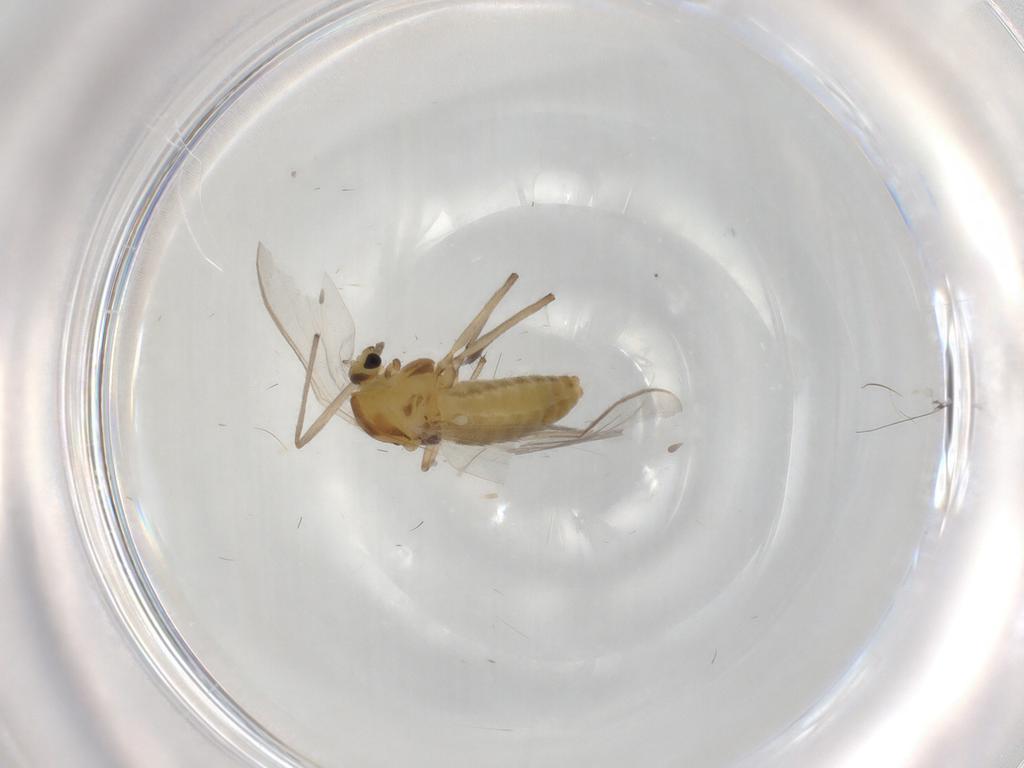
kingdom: Animalia
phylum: Arthropoda
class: Insecta
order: Diptera
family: Chironomidae
